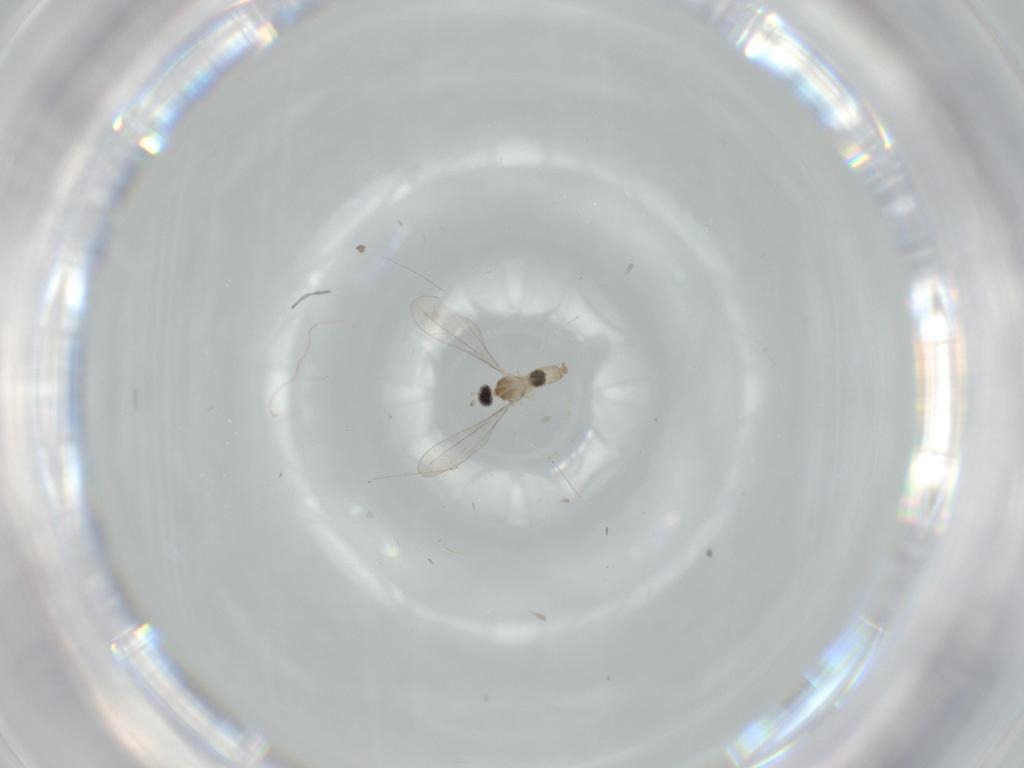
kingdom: Animalia
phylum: Arthropoda
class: Insecta
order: Diptera
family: Cecidomyiidae
